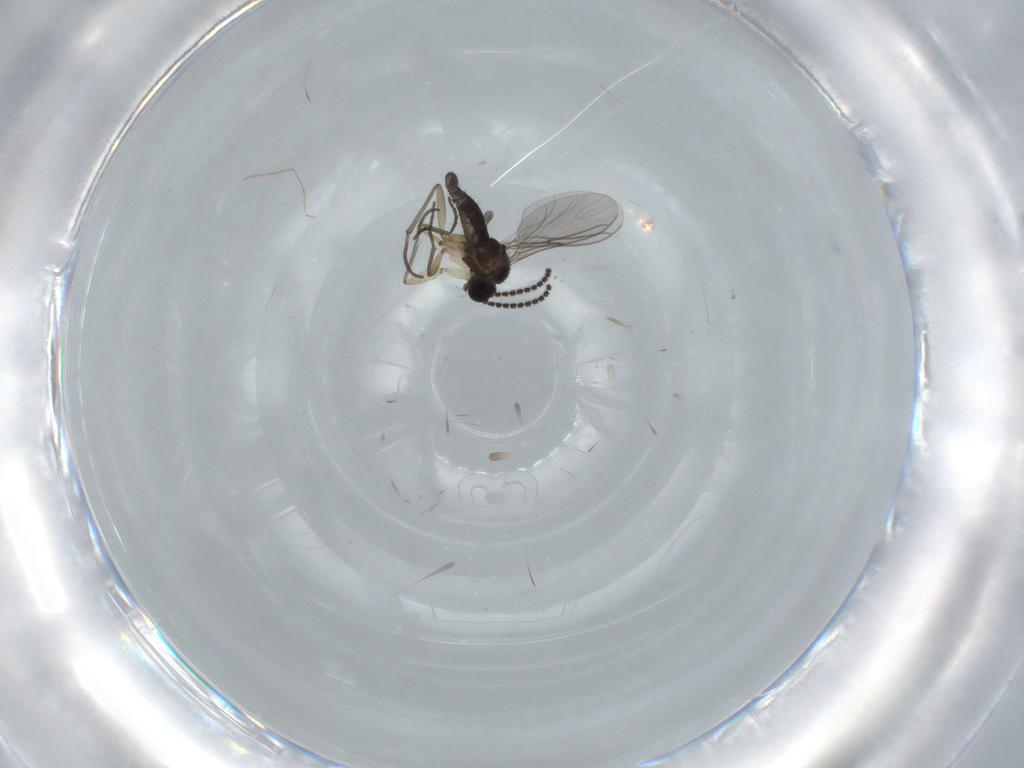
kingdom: Animalia
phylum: Arthropoda
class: Insecta
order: Diptera
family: Sciaridae
